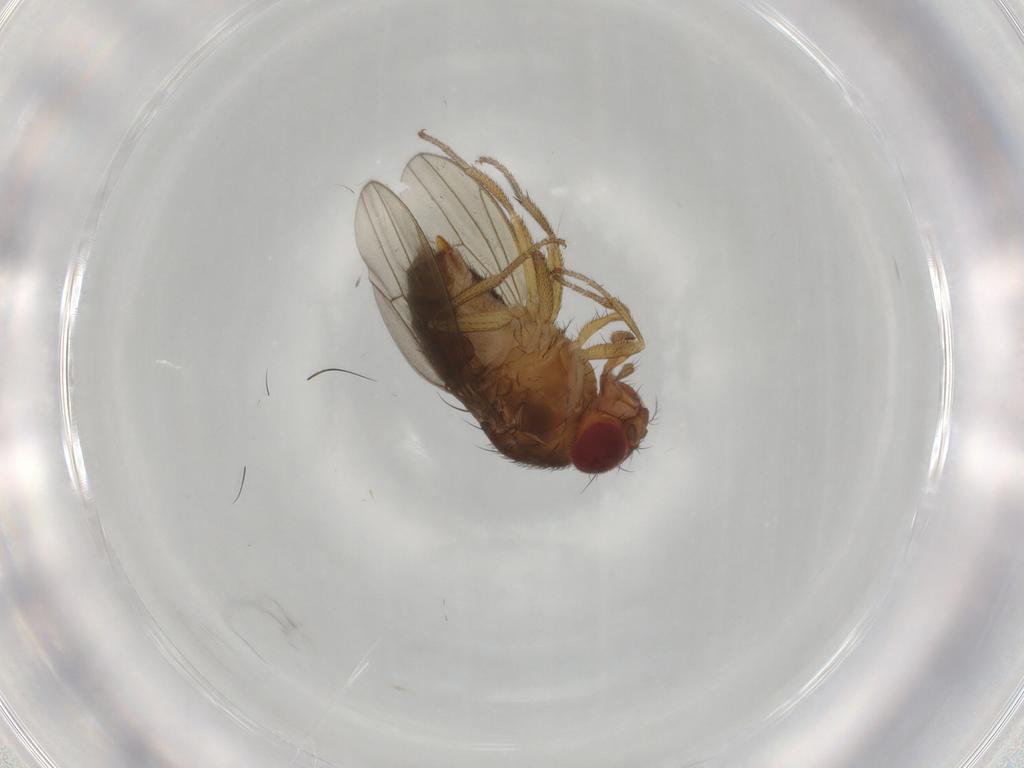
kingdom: Animalia
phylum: Arthropoda
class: Insecta
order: Diptera
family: Drosophilidae
